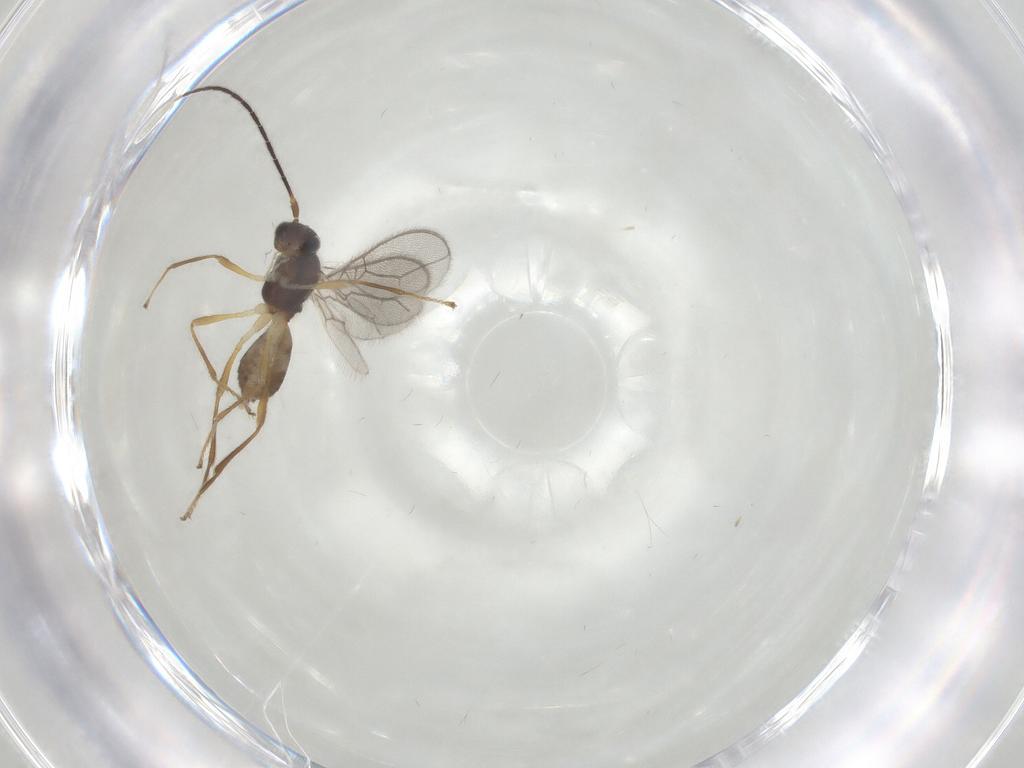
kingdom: Animalia
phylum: Arthropoda
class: Insecta
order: Hymenoptera
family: Braconidae
